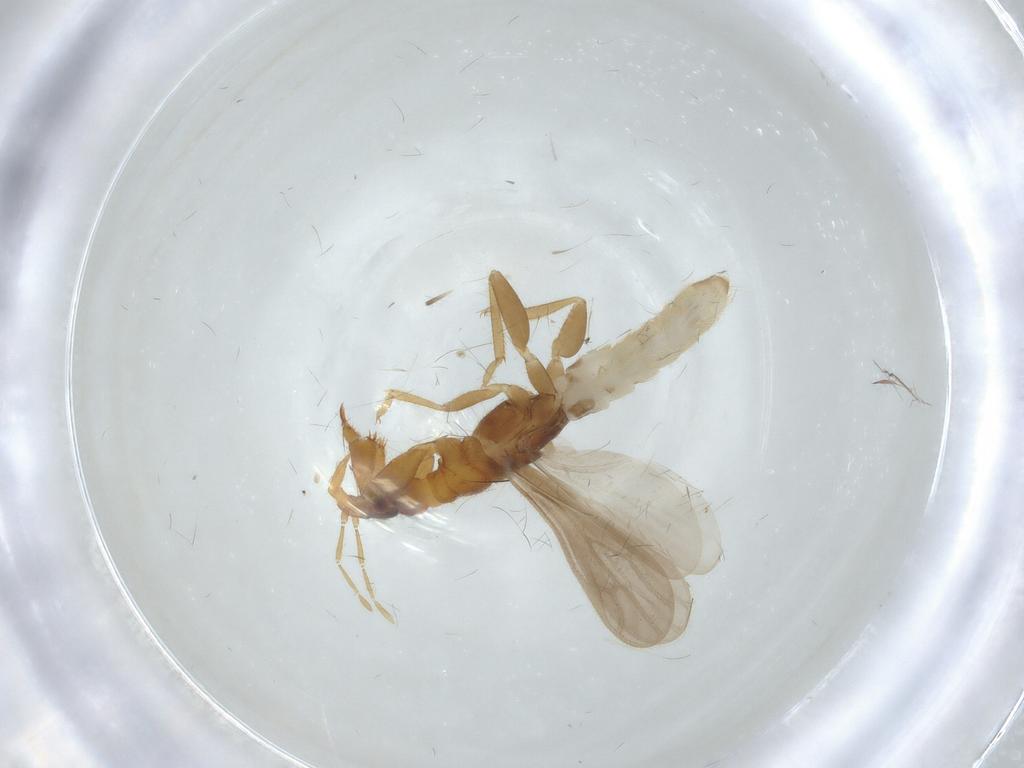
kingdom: Animalia
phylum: Arthropoda
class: Insecta
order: Hemiptera
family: Enicocephalidae
